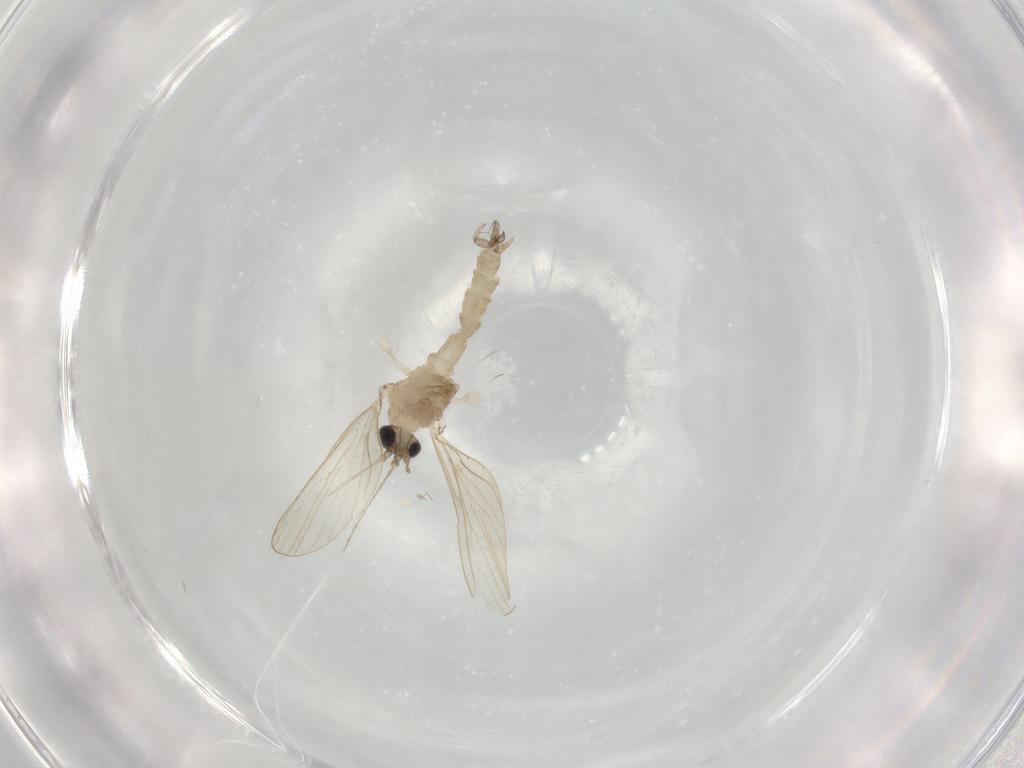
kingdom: Animalia
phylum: Arthropoda
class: Insecta
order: Diptera
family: Psychodidae
